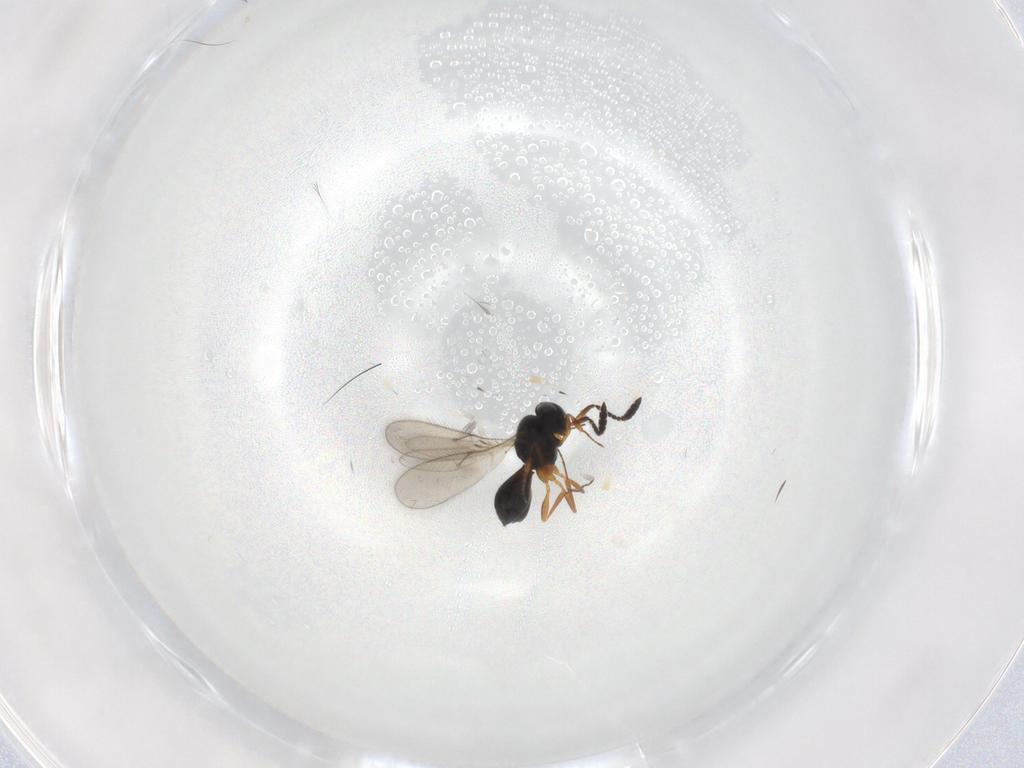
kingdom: Animalia
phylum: Arthropoda
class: Insecta
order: Hymenoptera
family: Scelionidae
